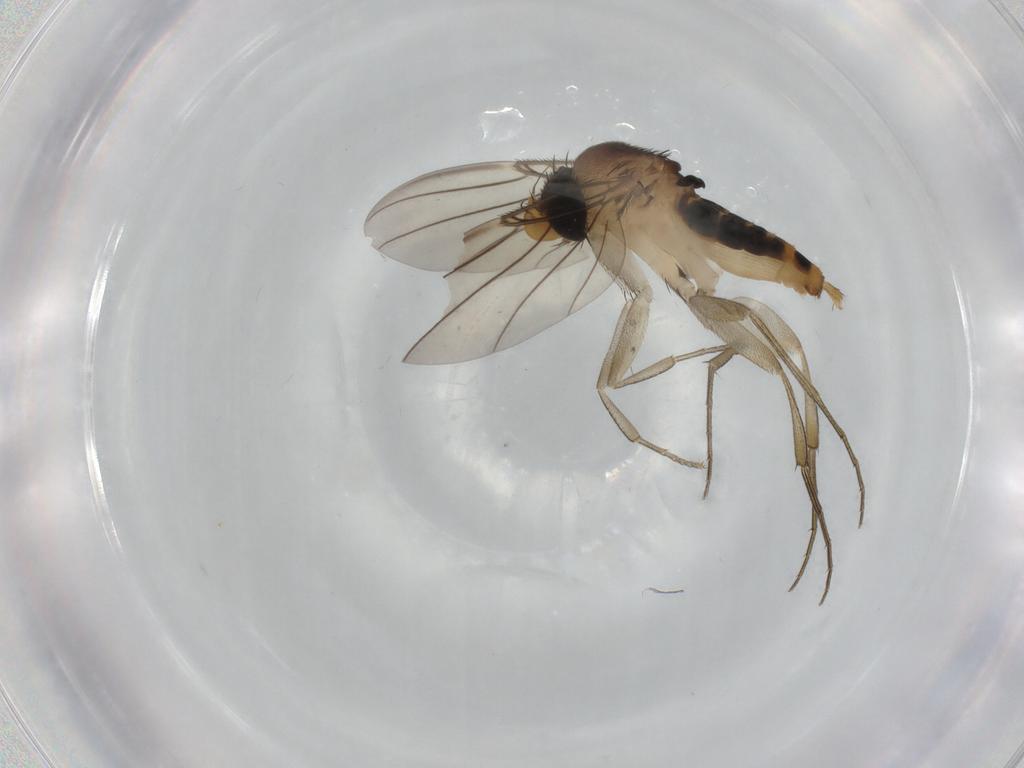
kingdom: Animalia
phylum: Arthropoda
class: Insecta
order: Diptera
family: Phoridae
